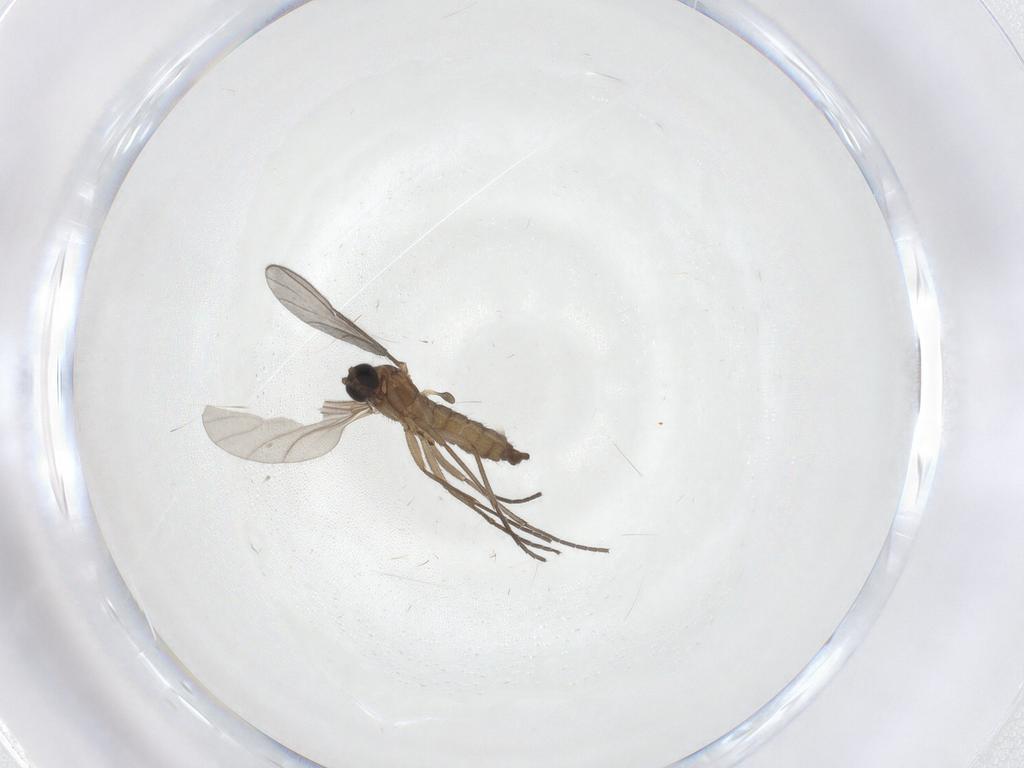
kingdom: Animalia
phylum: Arthropoda
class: Insecta
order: Diptera
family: Sciaridae
